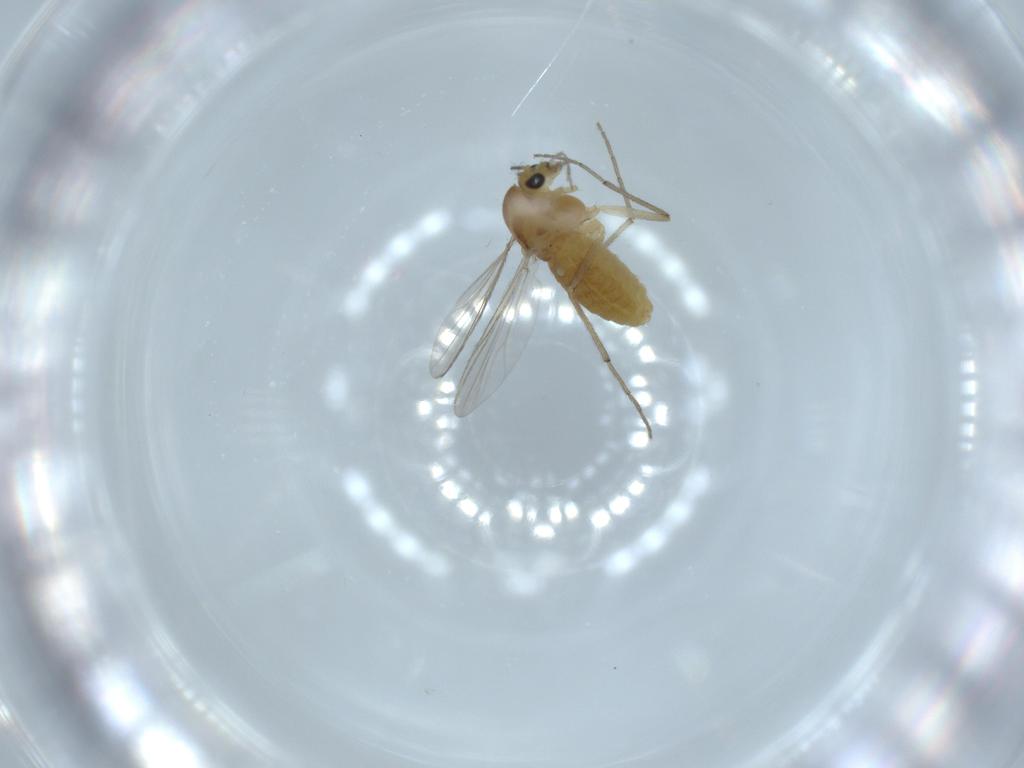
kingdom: Animalia
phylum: Arthropoda
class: Insecta
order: Diptera
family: Chironomidae
